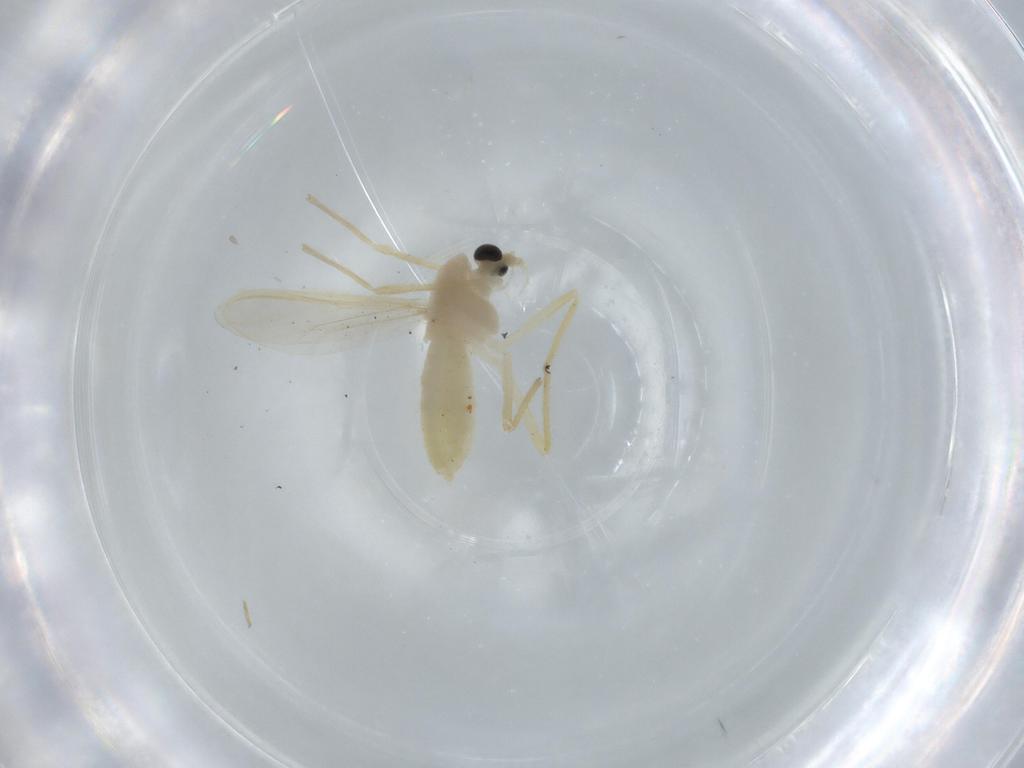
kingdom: Animalia
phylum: Arthropoda
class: Insecta
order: Diptera
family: Chironomidae
